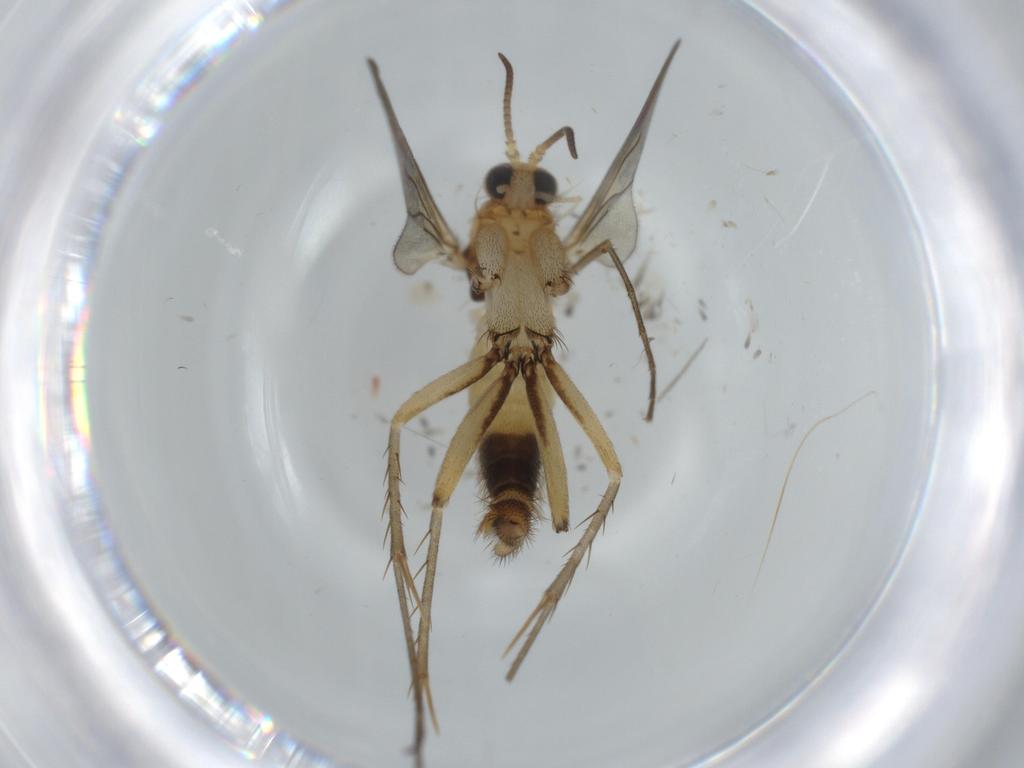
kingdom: Animalia
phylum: Arthropoda
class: Insecta
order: Diptera
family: Mycetophilidae
